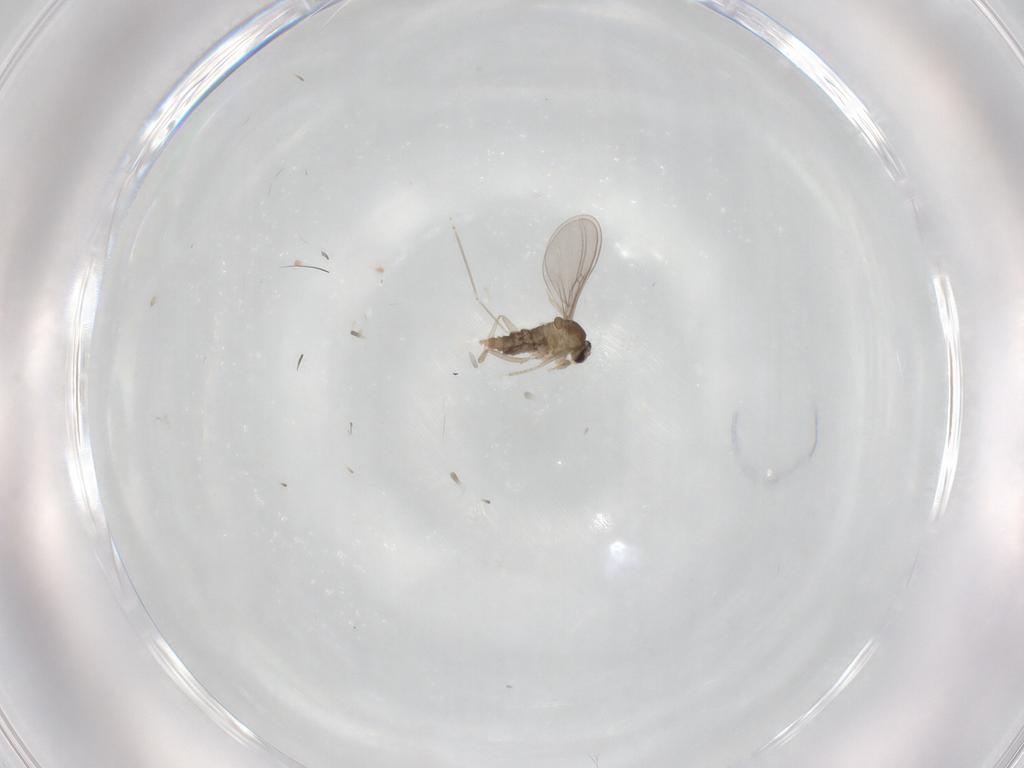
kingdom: Animalia
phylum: Arthropoda
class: Insecta
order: Diptera
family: Cecidomyiidae
